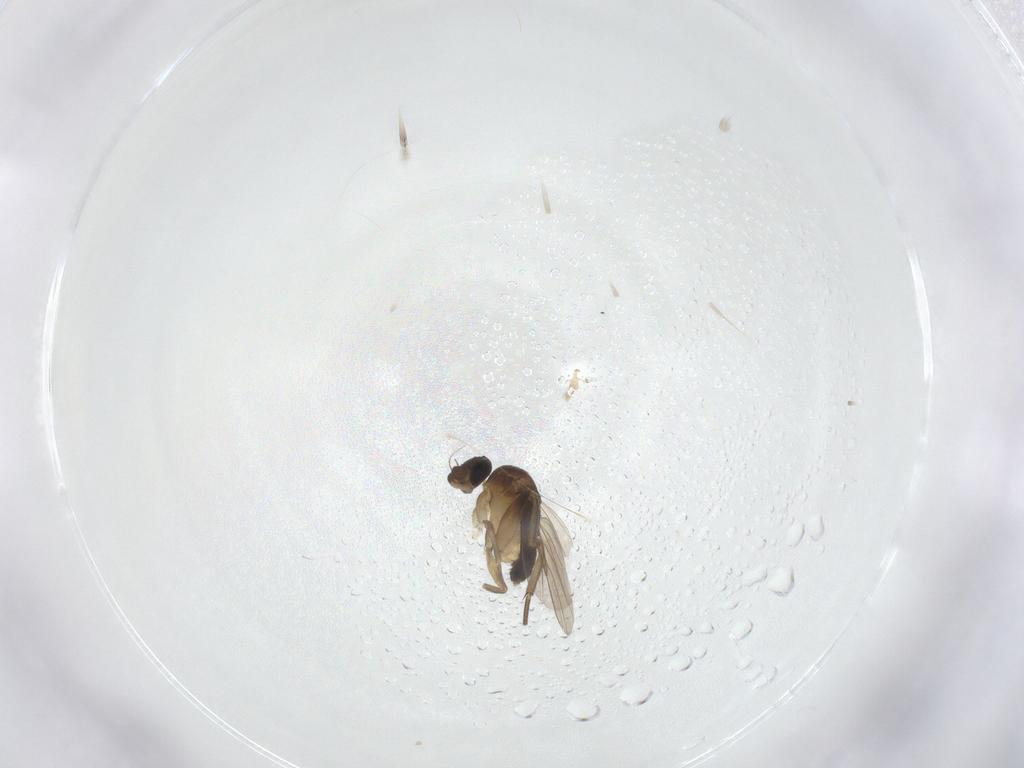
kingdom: Animalia
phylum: Arthropoda
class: Insecta
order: Diptera
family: Phoridae
